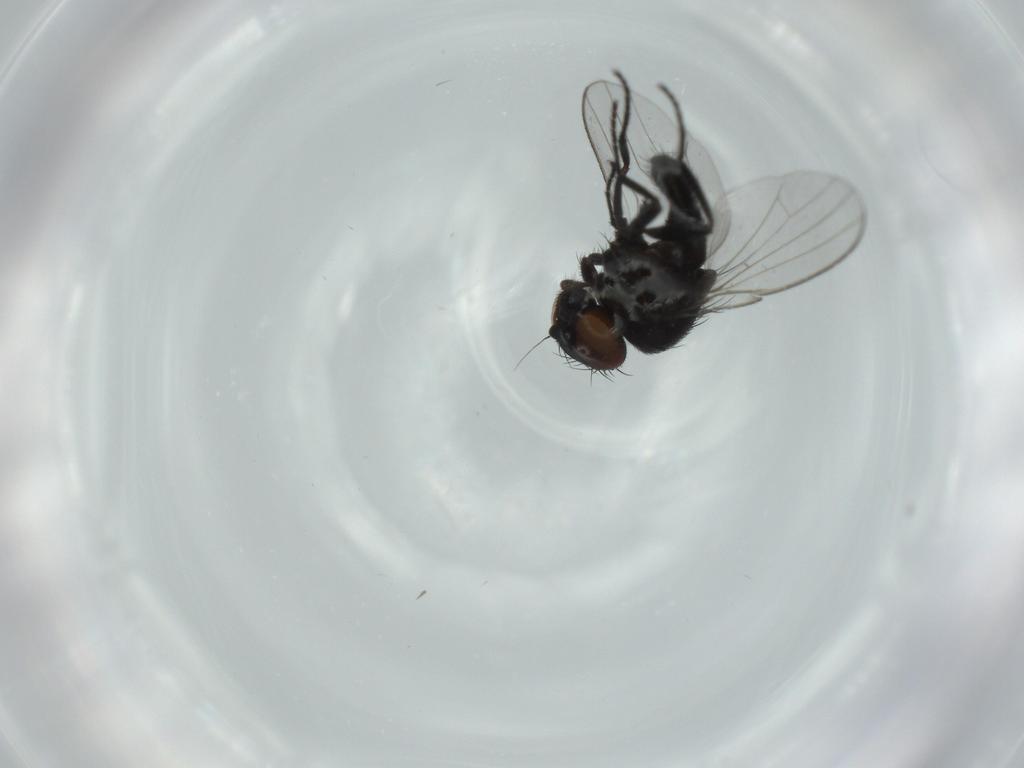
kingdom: Animalia
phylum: Arthropoda
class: Insecta
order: Diptera
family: Milichiidae
